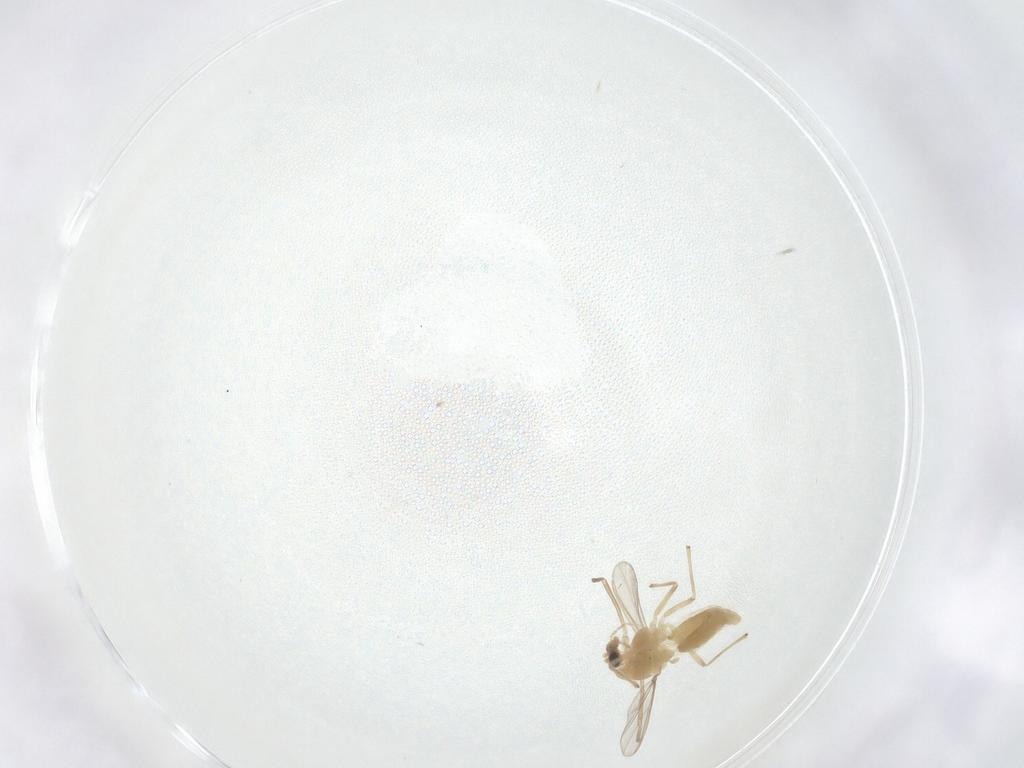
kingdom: Animalia
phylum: Arthropoda
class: Insecta
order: Diptera
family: Chironomidae
